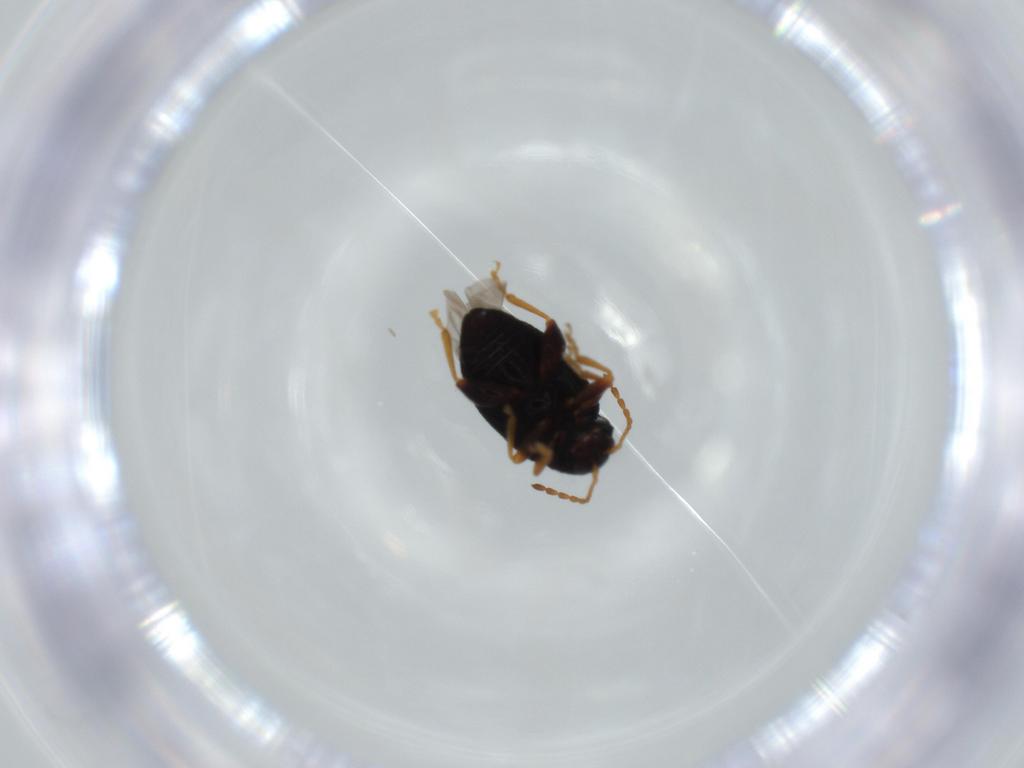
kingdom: Animalia
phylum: Arthropoda
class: Insecta
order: Coleoptera
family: Chrysomelidae
